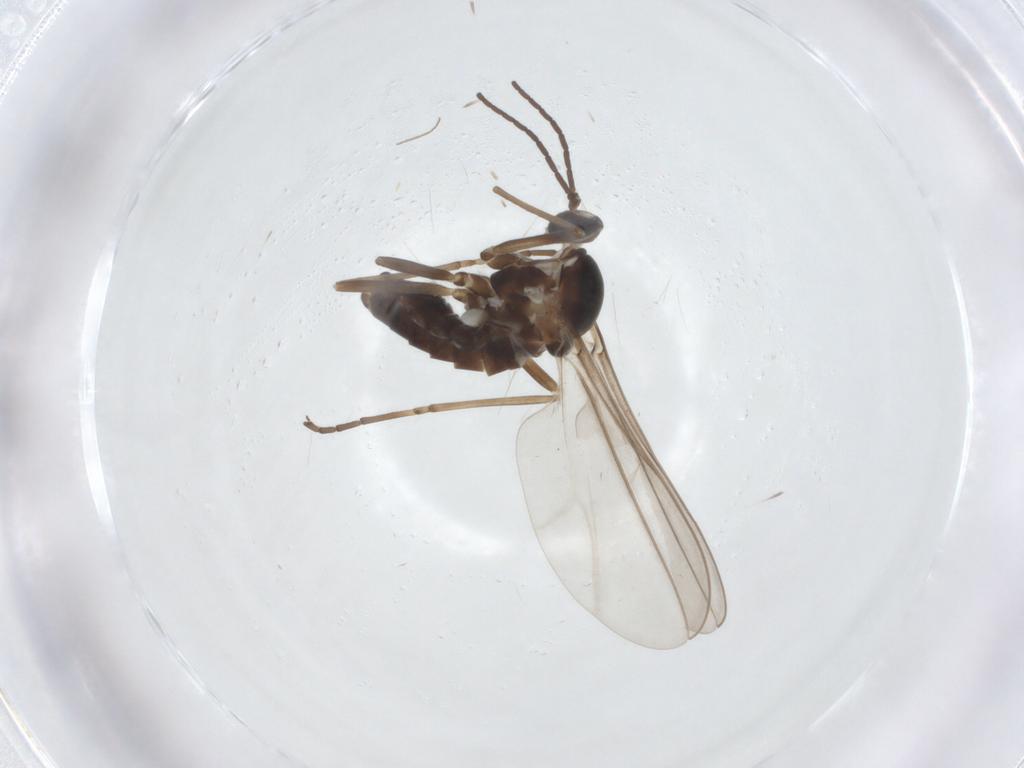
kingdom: Animalia
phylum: Arthropoda
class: Insecta
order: Diptera
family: Cecidomyiidae
